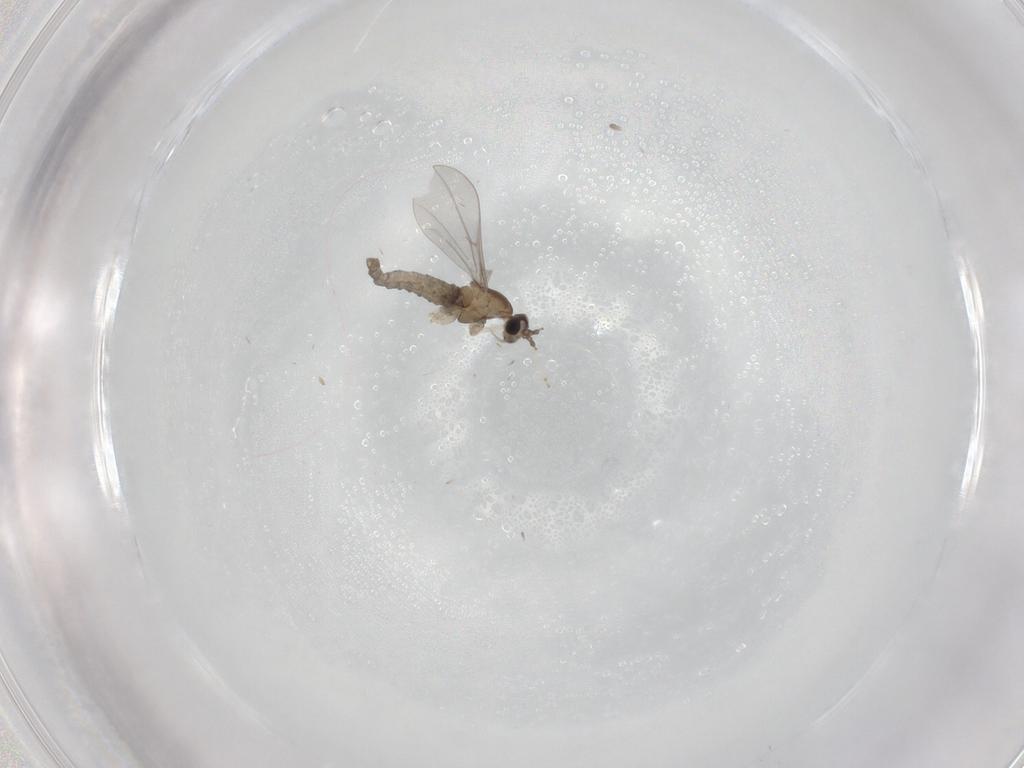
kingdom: Animalia
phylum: Arthropoda
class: Insecta
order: Diptera
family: Cecidomyiidae
